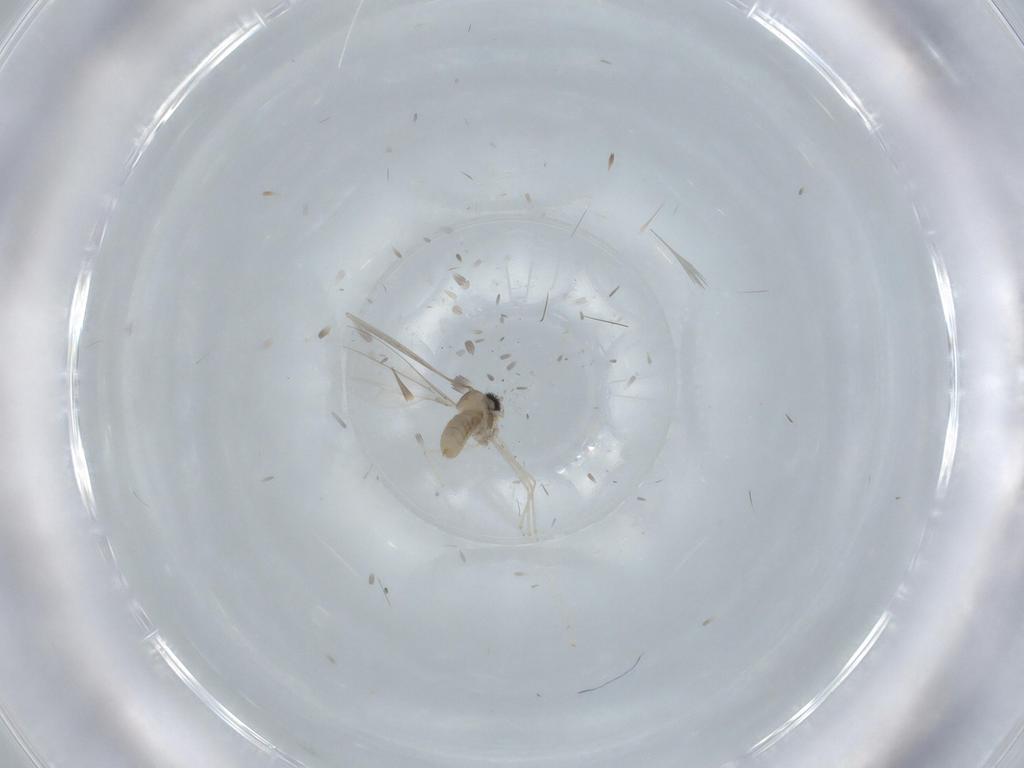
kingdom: Animalia
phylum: Arthropoda
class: Insecta
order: Diptera
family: Cecidomyiidae
